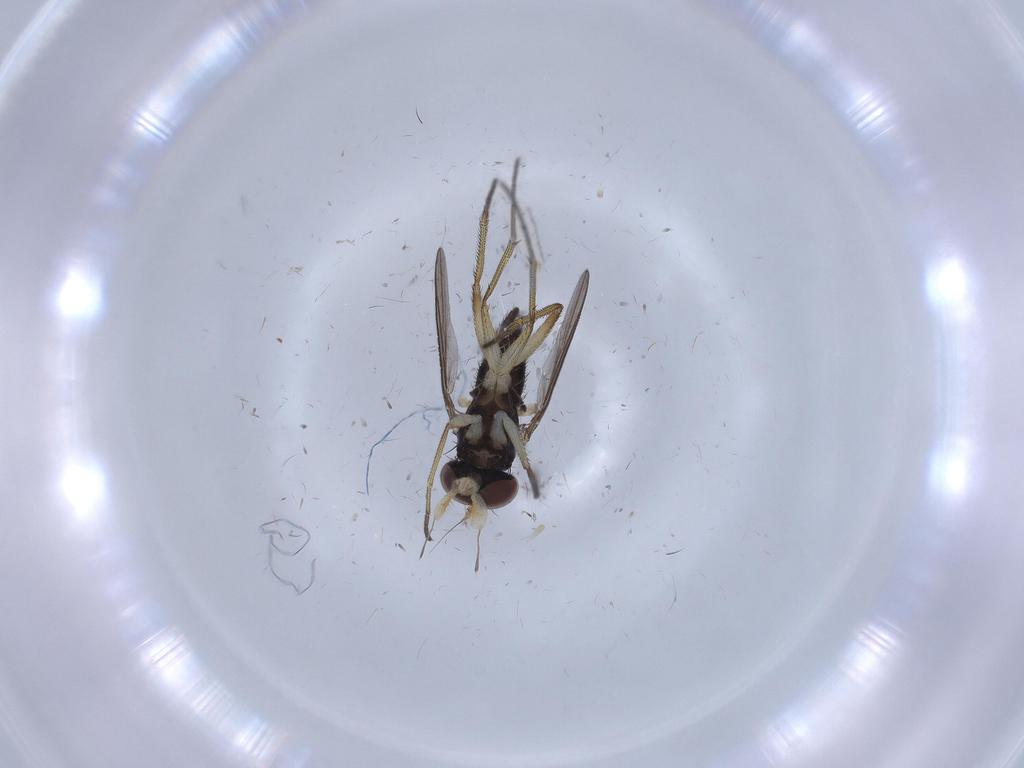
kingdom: Animalia
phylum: Arthropoda
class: Insecta
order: Diptera
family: Dolichopodidae
